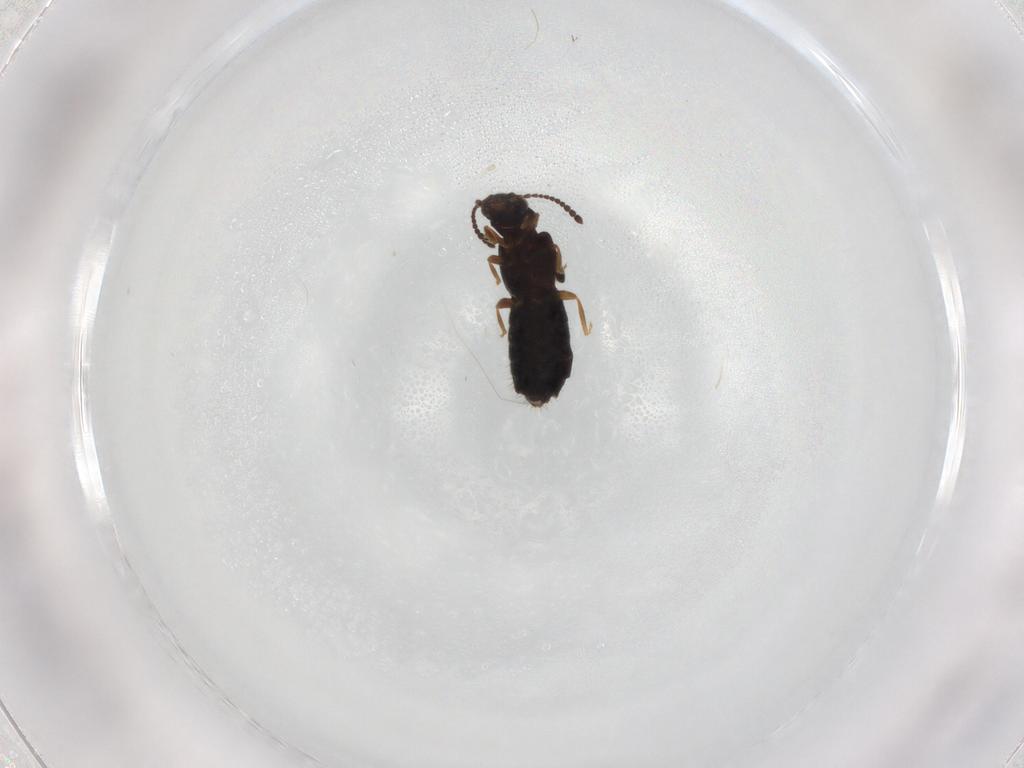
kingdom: Animalia
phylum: Arthropoda
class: Insecta
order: Coleoptera
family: Staphylinidae
